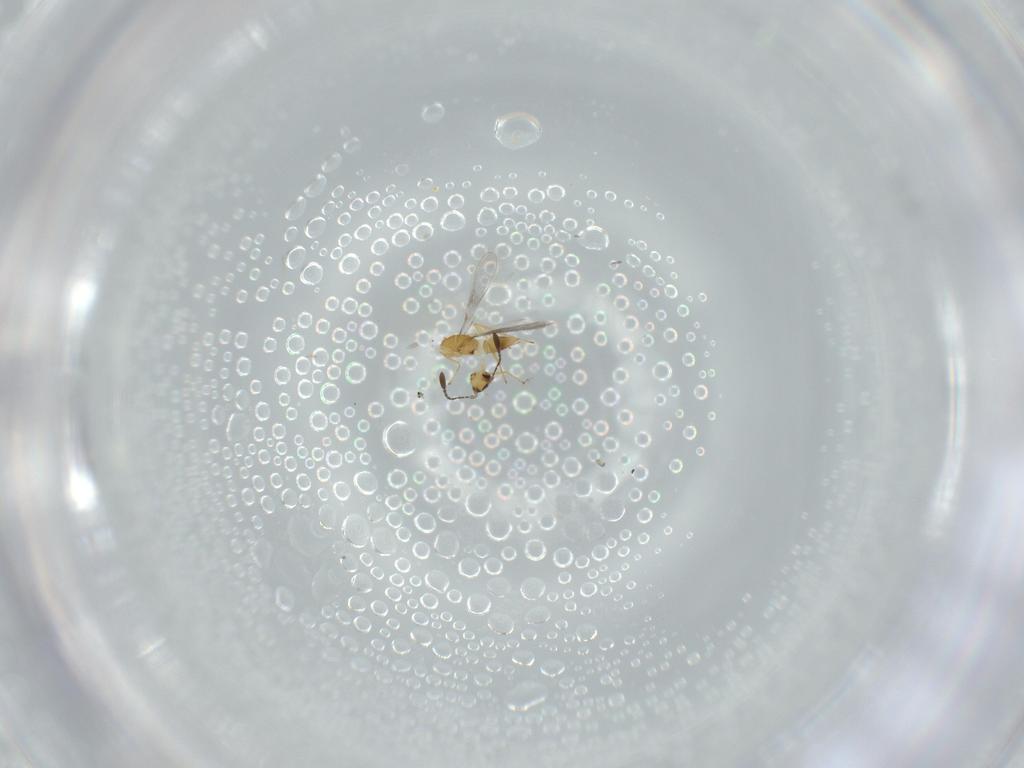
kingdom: Animalia
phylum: Arthropoda
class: Insecta
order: Hymenoptera
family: Mymaridae
